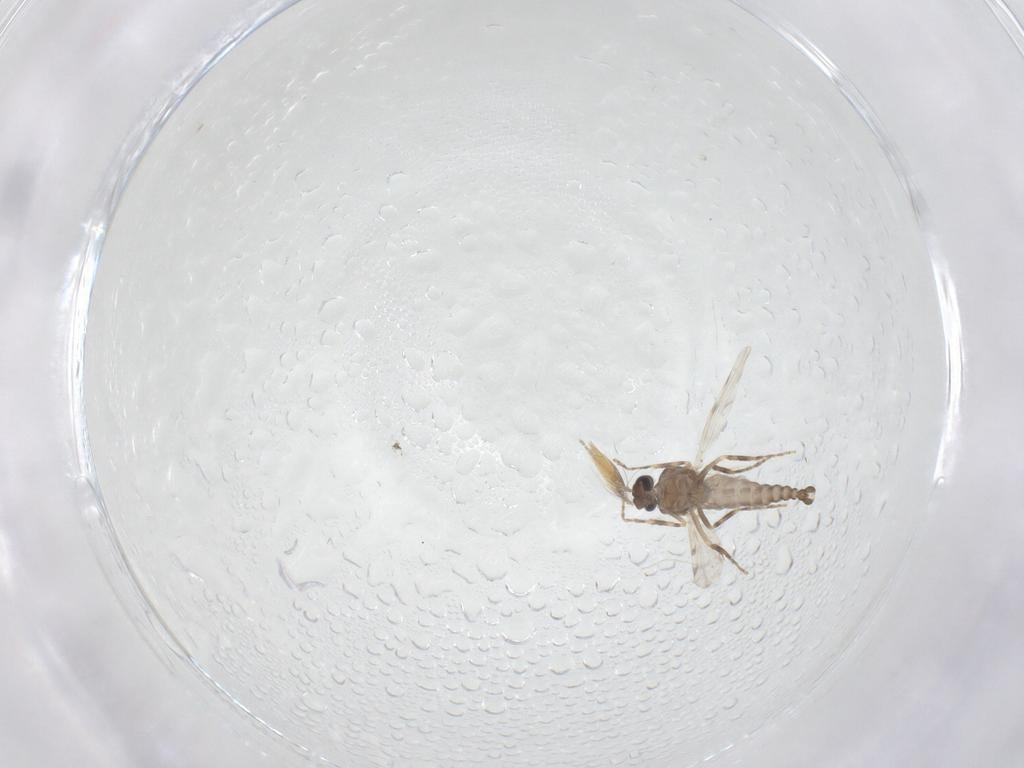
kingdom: Animalia
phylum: Arthropoda
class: Insecta
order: Diptera
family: Ceratopogonidae
